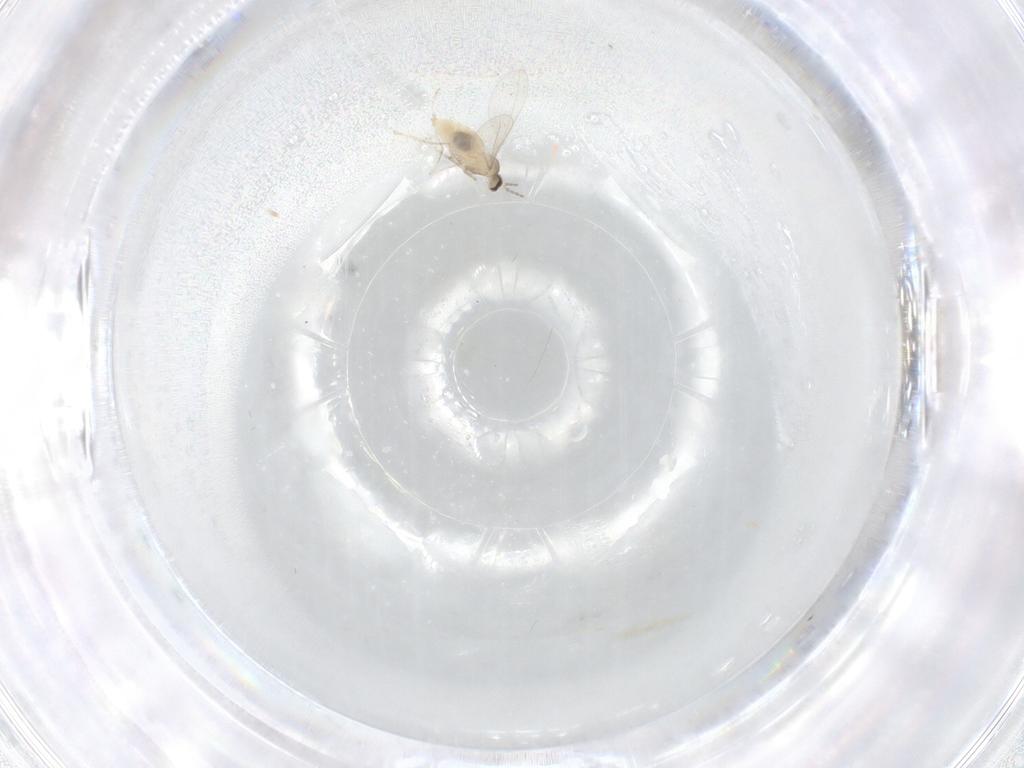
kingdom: Animalia
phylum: Arthropoda
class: Insecta
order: Diptera
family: Cecidomyiidae
